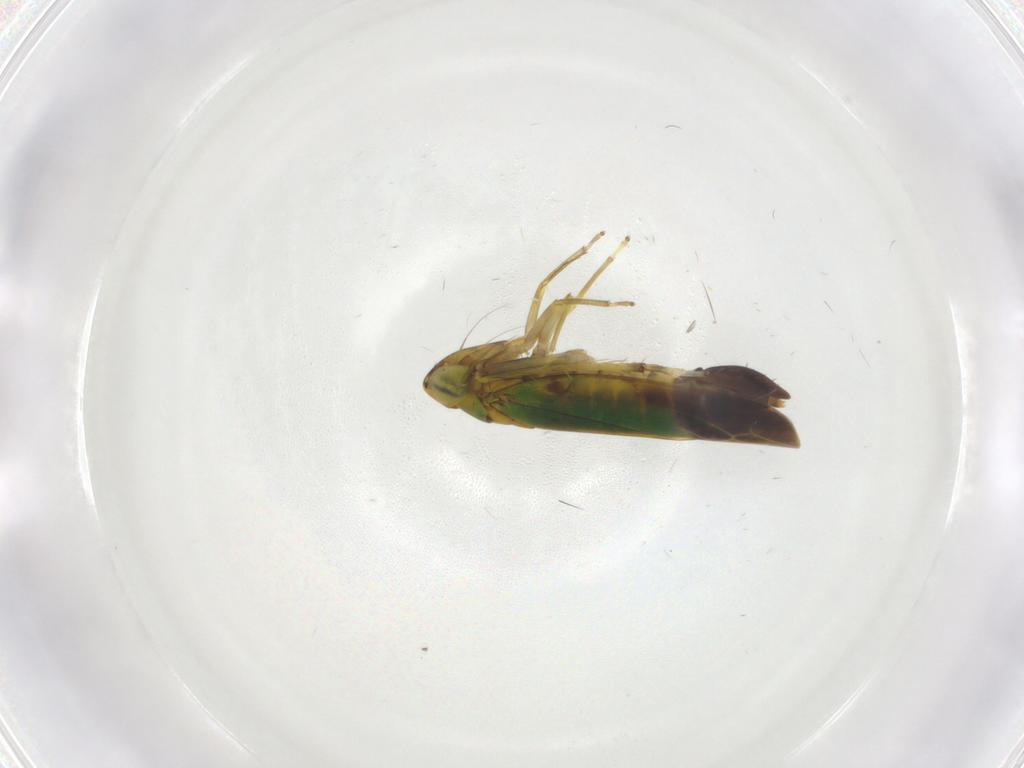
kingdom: Animalia
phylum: Arthropoda
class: Insecta
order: Hemiptera
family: Cicadellidae
